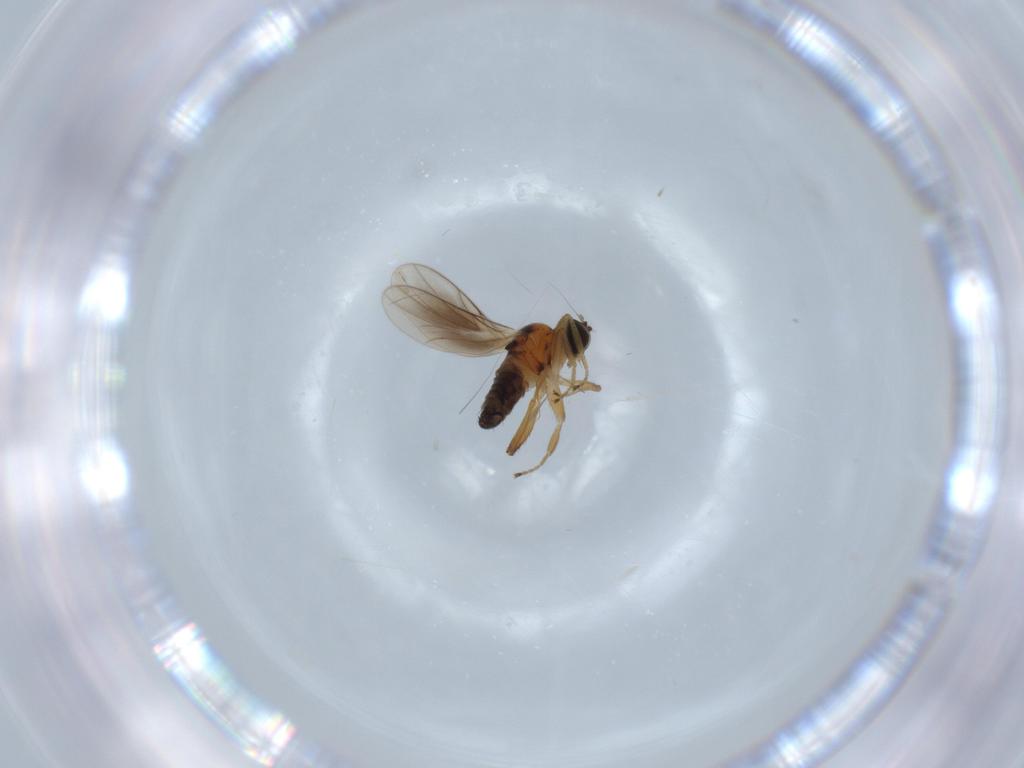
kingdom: Animalia
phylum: Arthropoda
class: Insecta
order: Diptera
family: Hybotidae
